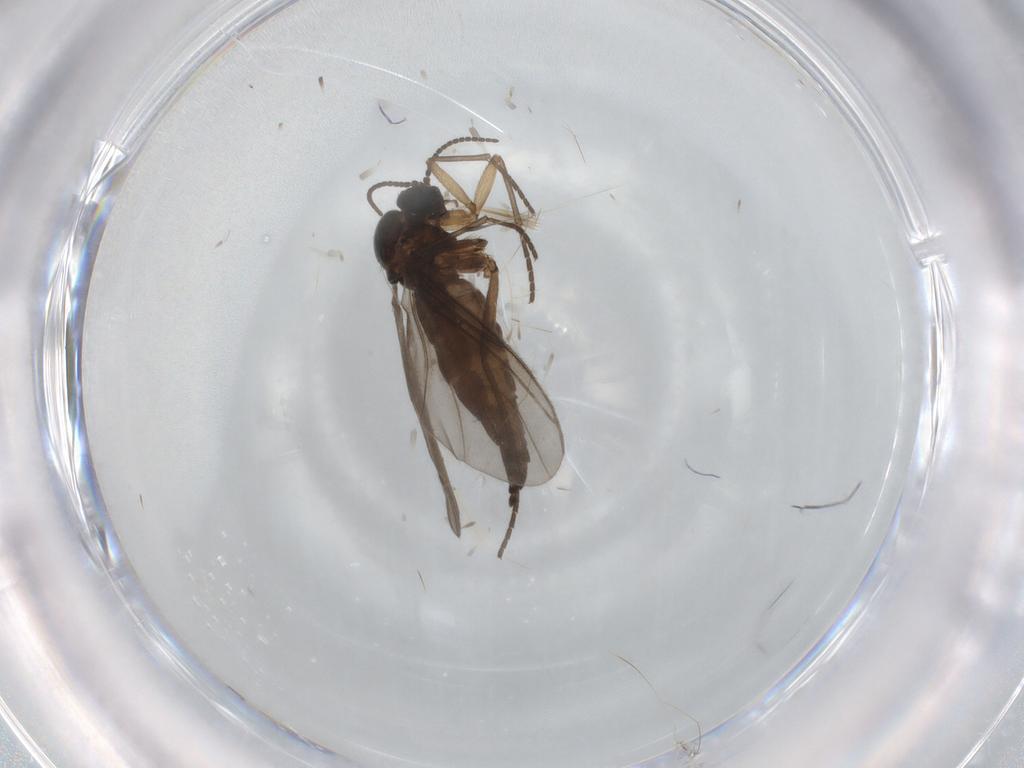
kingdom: Animalia
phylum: Arthropoda
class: Insecta
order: Diptera
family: Sciaridae
